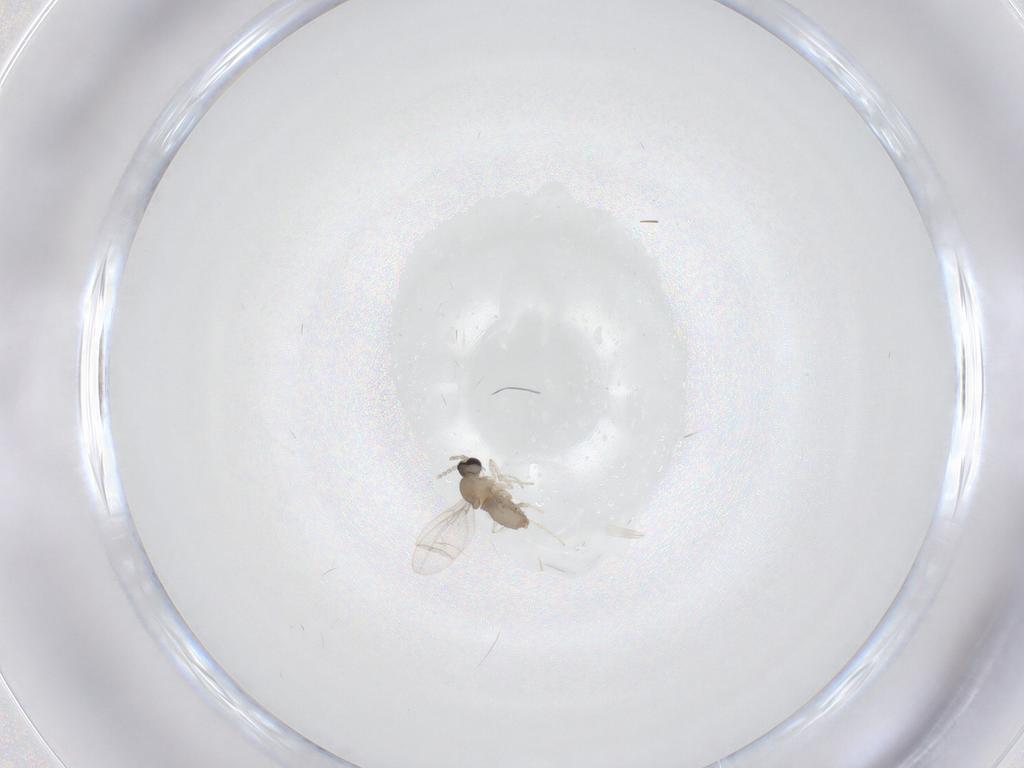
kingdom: Animalia
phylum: Arthropoda
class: Insecta
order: Diptera
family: Cecidomyiidae
